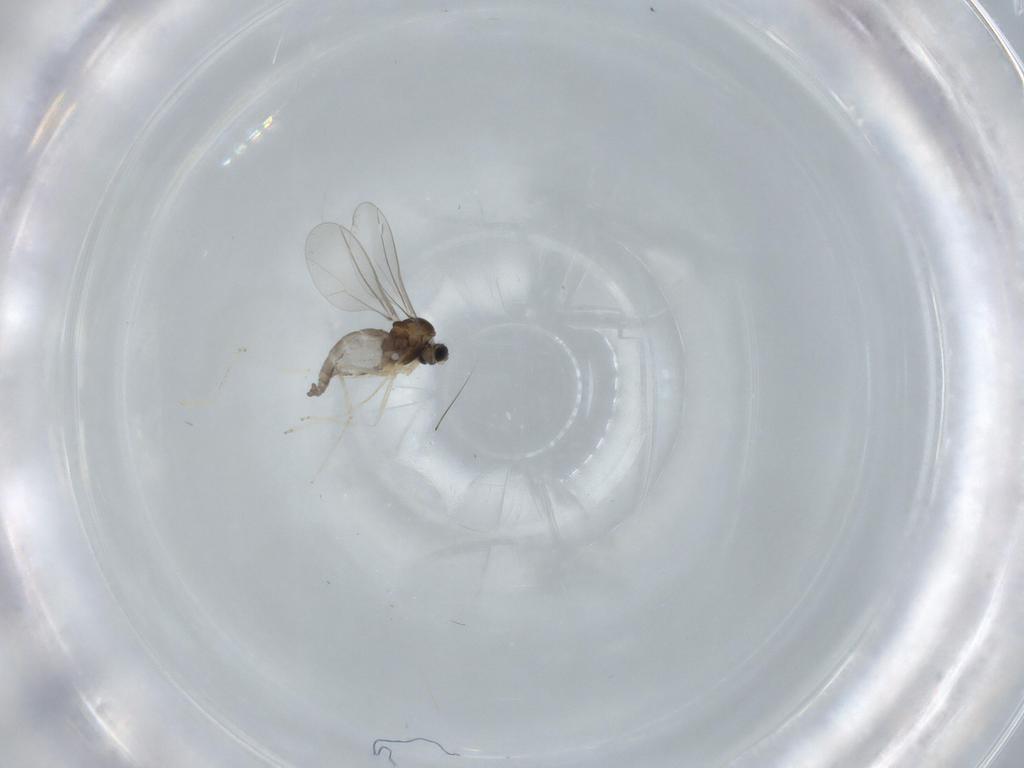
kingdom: Animalia
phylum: Arthropoda
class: Insecta
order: Diptera
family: Cecidomyiidae
